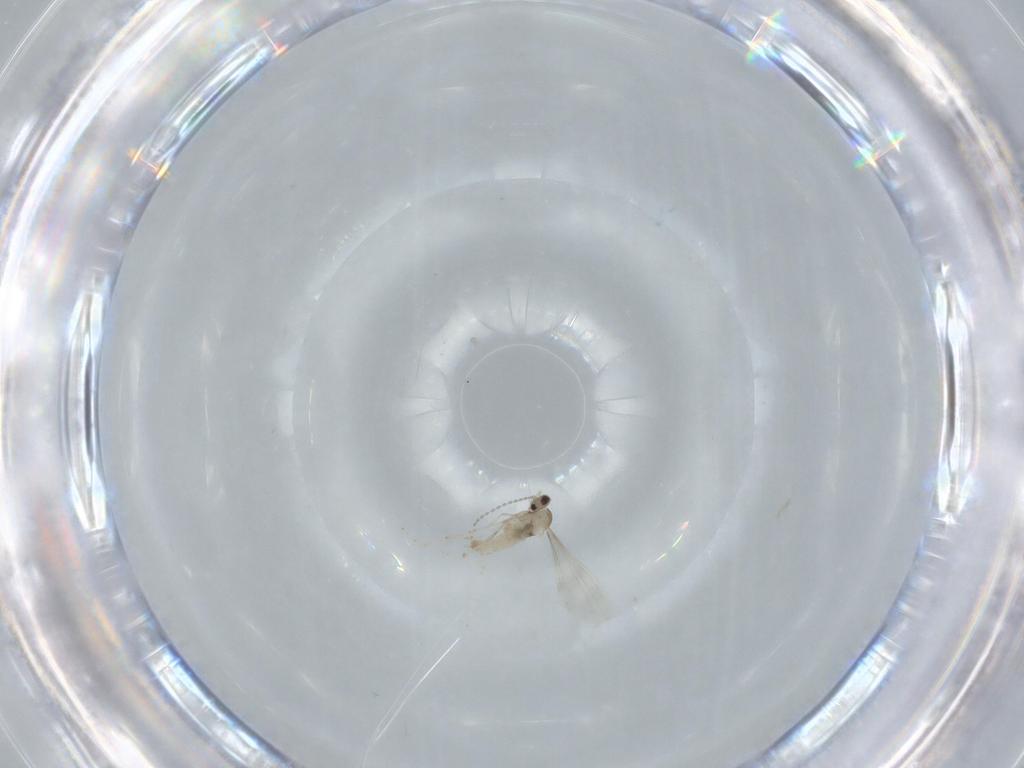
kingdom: Animalia
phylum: Arthropoda
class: Insecta
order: Diptera
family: Cecidomyiidae
